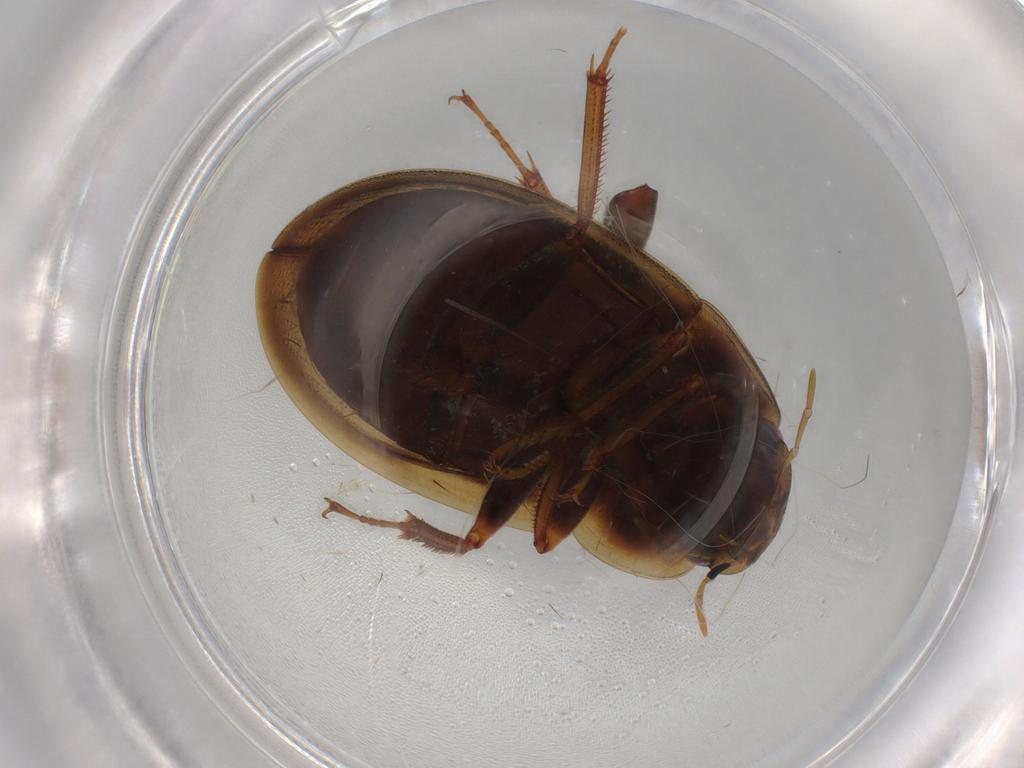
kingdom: Animalia
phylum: Arthropoda
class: Insecta
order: Coleoptera
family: Hydrophilidae
